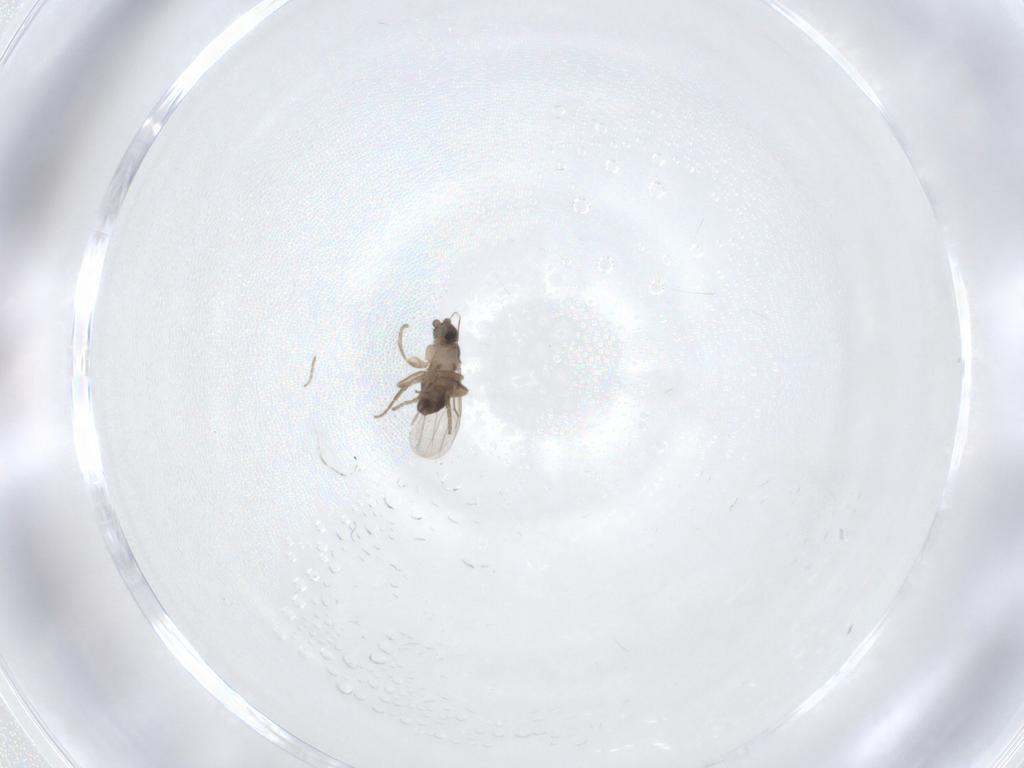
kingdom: Animalia
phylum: Arthropoda
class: Insecta
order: Diptera
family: Phoridae
